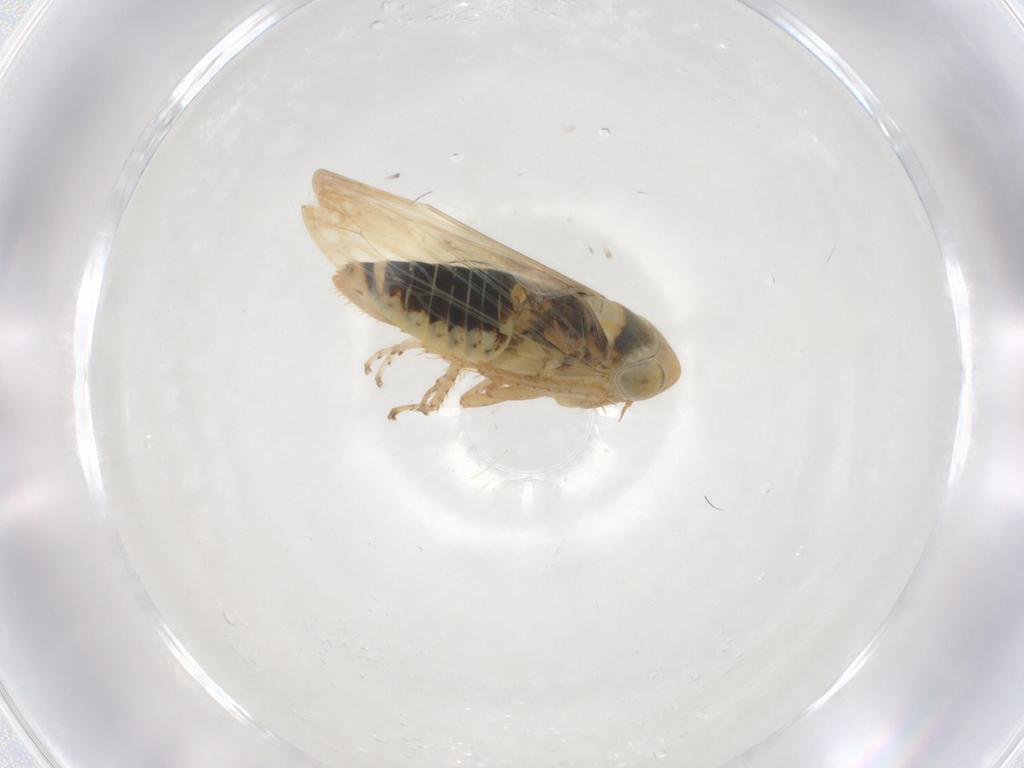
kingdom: Animalia
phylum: Arthropoda
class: Insecta
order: Hemiptera
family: Cicadellidae
